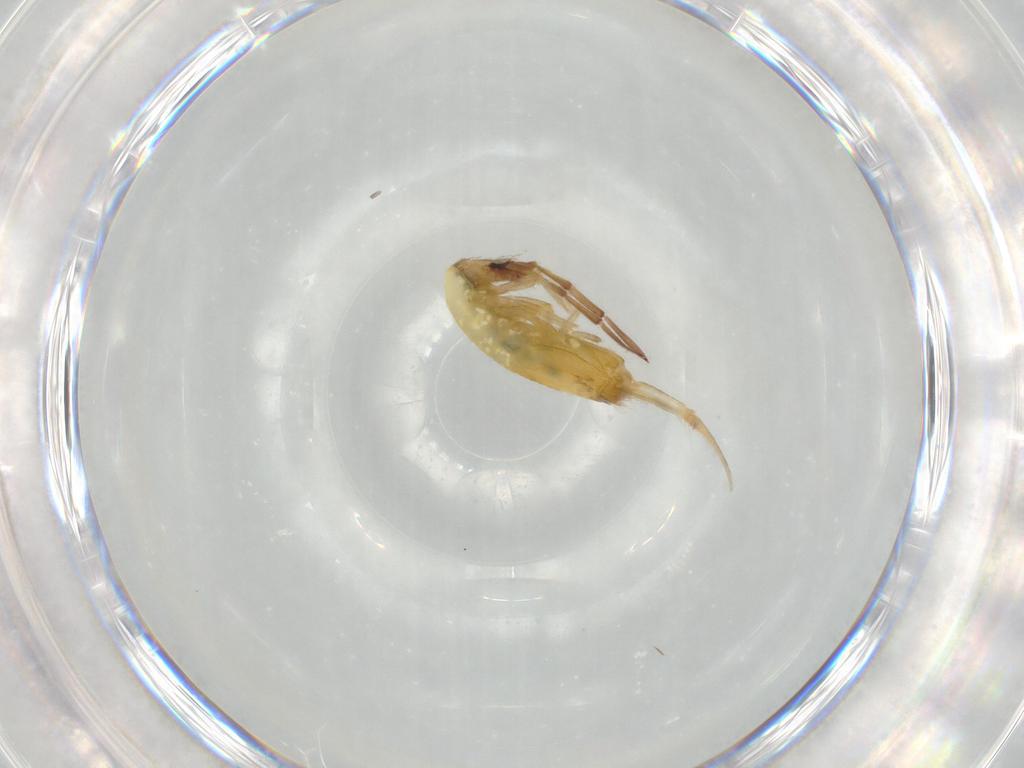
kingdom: Animalia
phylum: Arthropoda
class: Collembola
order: Entomobryomorpha
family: Entomobryidae
